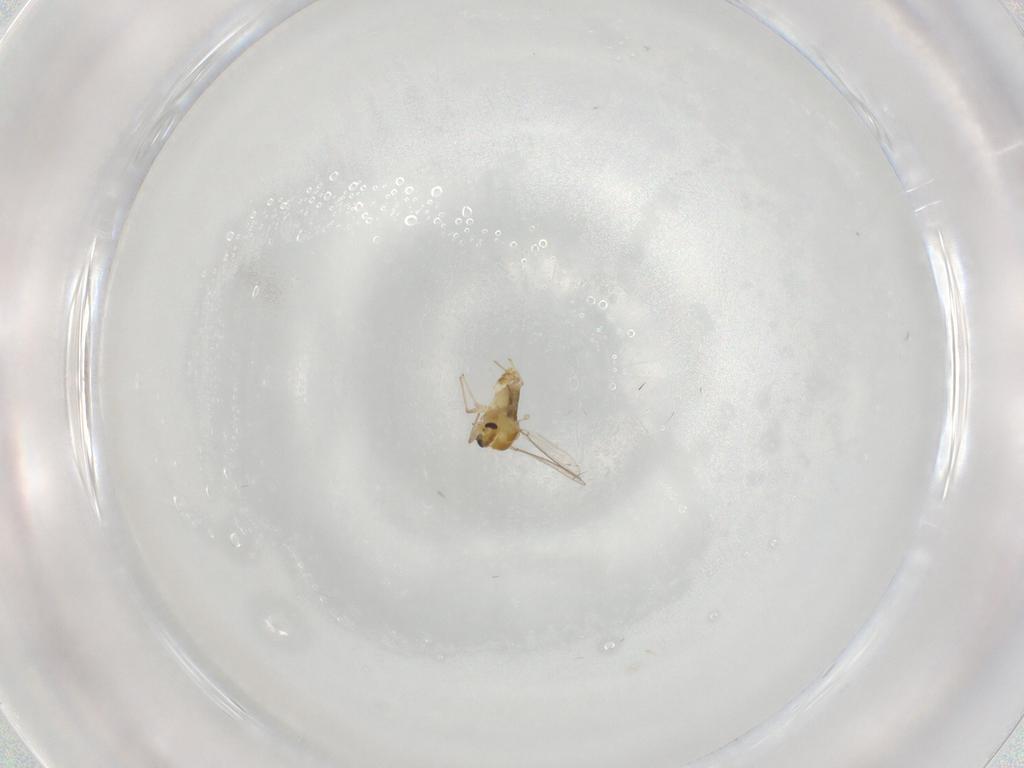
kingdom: Animalia
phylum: Arthropoda
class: Insecta
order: Diptera
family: Chironomidae
